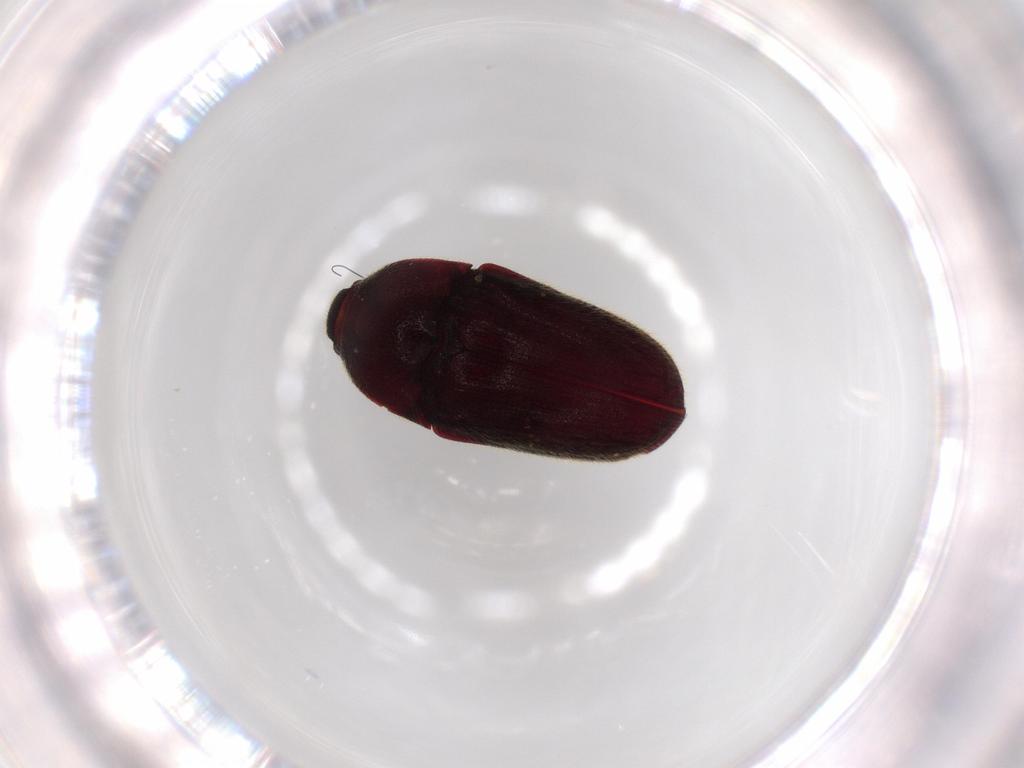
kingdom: Animalia
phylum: Arthropoda
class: Insecta
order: Coleoptera
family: Throscidae
